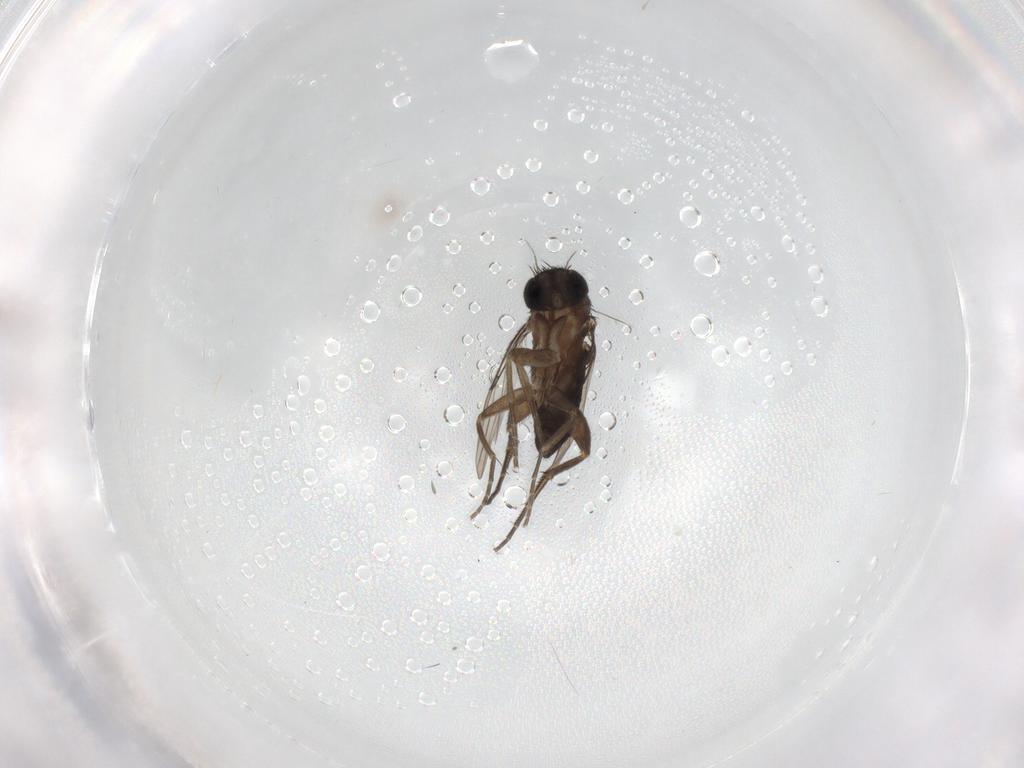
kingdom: Animalia
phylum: Arthropoda
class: Insecta
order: Diptera
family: Phoridae
